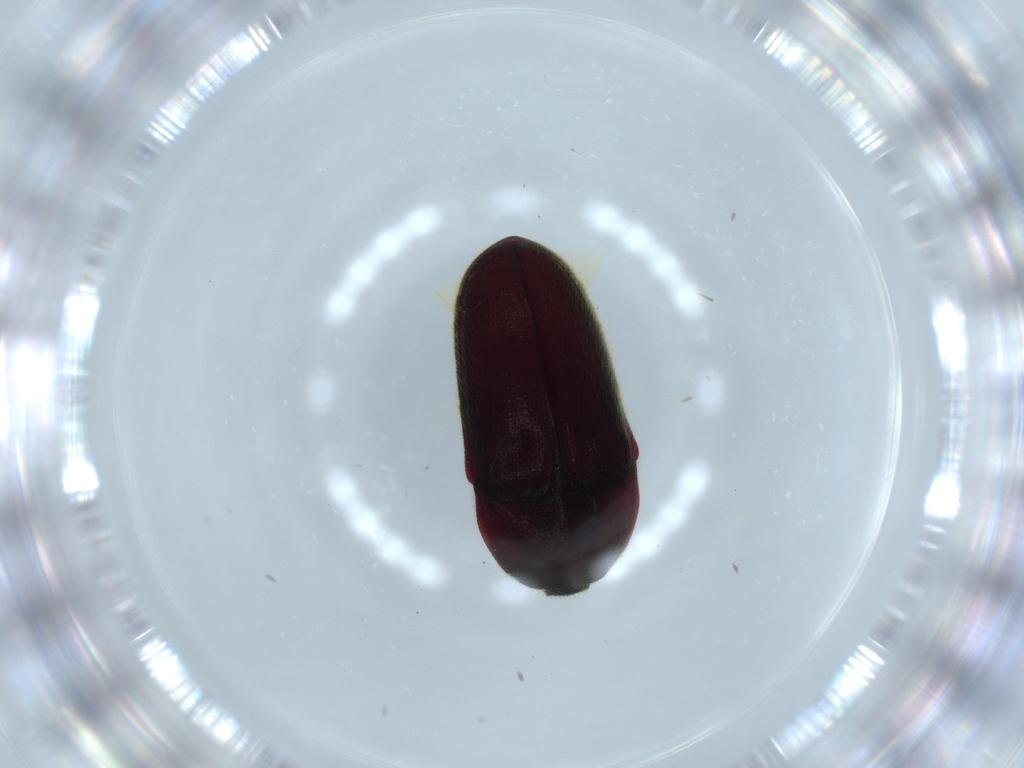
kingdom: Animalia
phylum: Arthropoda
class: Insecta
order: Coleoptera
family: Throscidae
